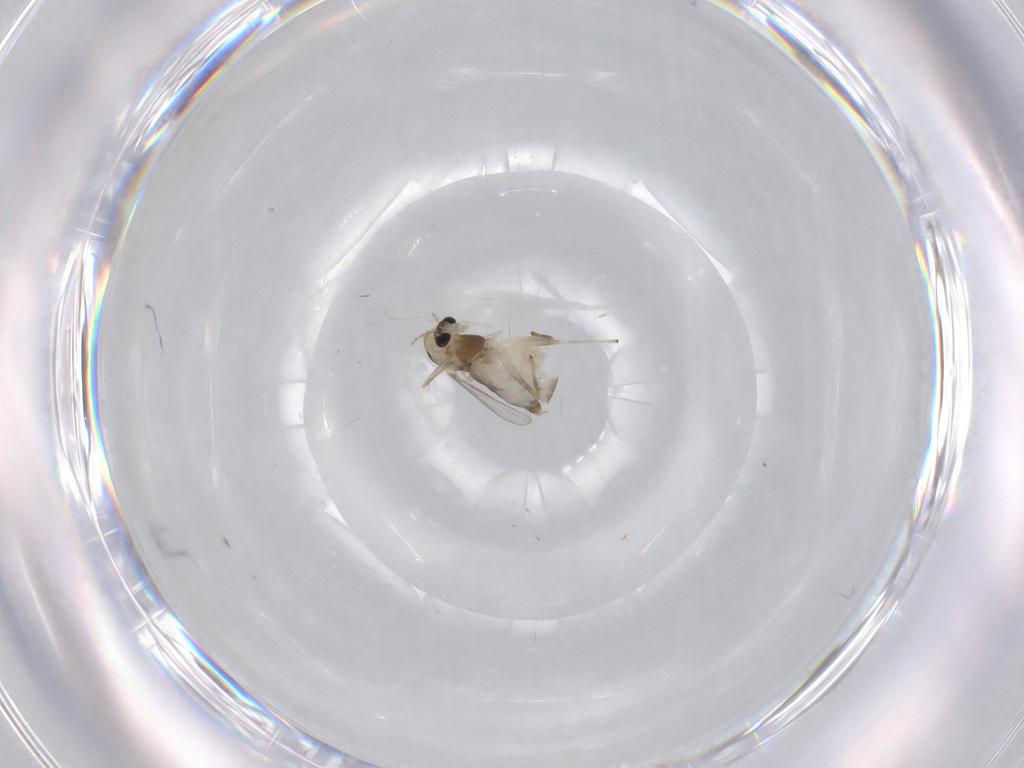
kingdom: Animalia
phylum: Arthropoda
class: Insecta
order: Diptera
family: Chironomidae
